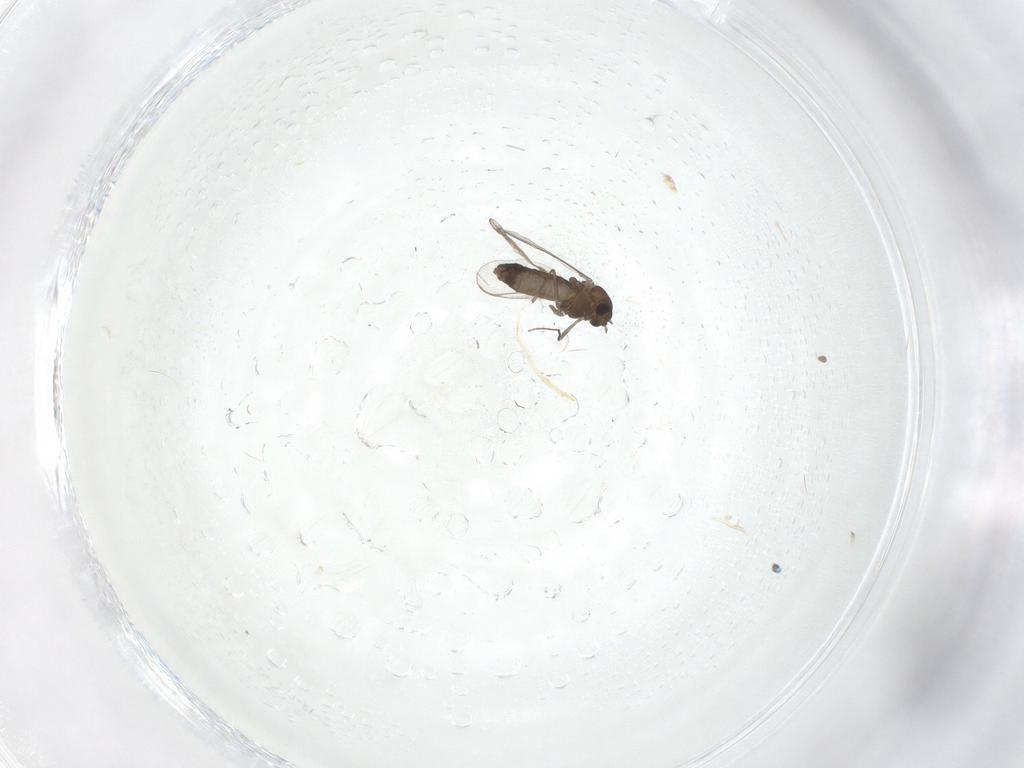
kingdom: Animalia
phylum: Arthropoda
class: Insecta
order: Diptera
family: Chironomidae
